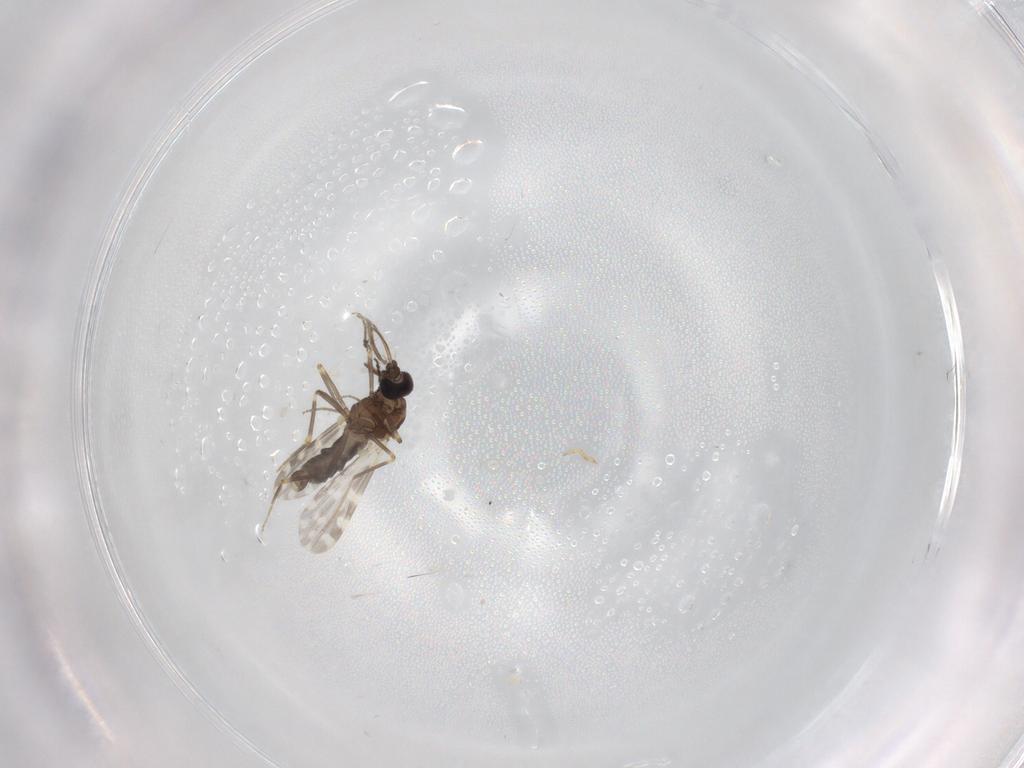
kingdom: Animalia
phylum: Arthropoda
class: Insecta
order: Diptera
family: Ceratopogonidae
